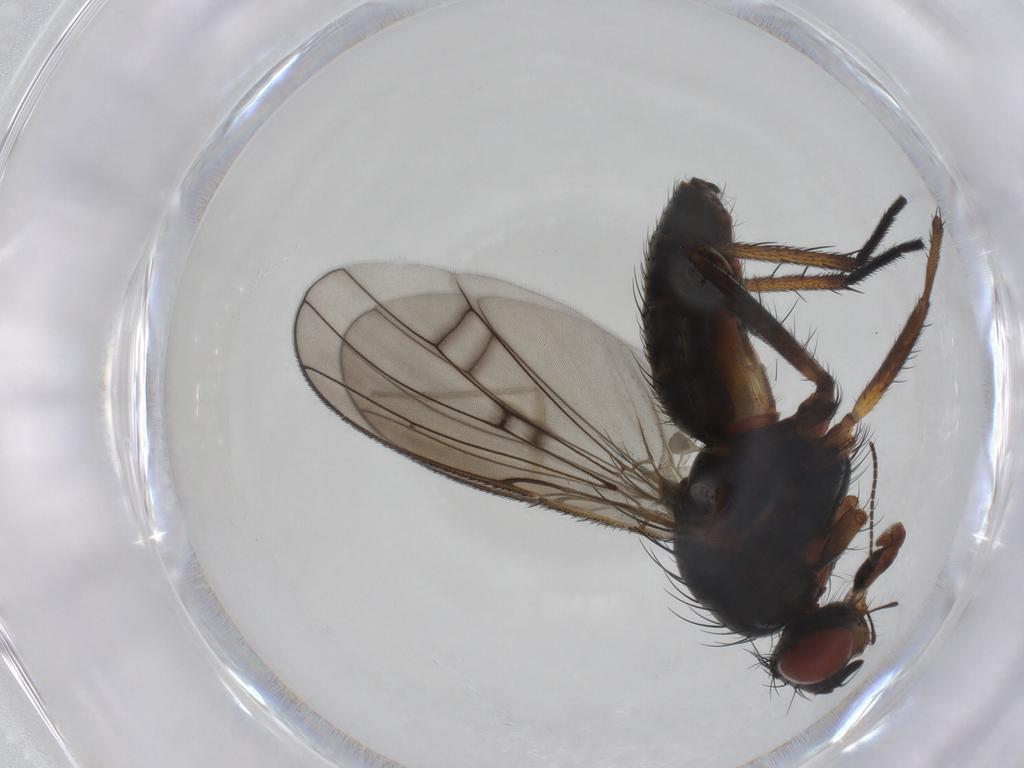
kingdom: Animalia
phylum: Arthropoda
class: Insecta
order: Diptera
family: Anthomyiidae
